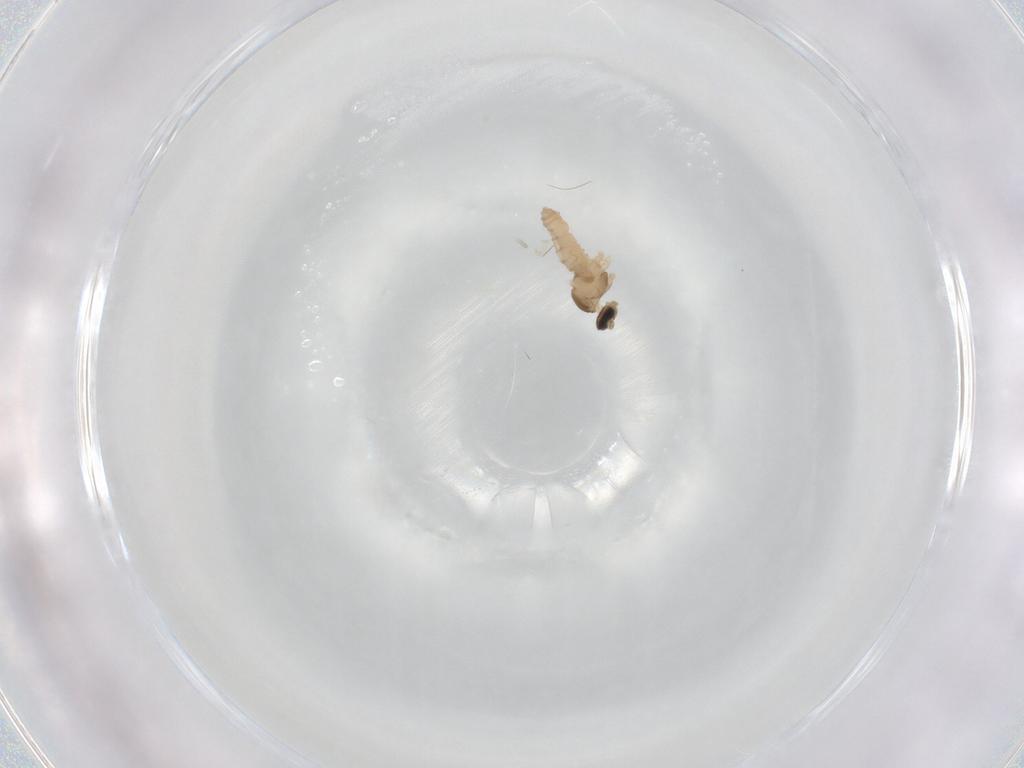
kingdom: Animalia
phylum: Arthropoda
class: Insecta
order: Diptera
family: Cecidomyiidae
